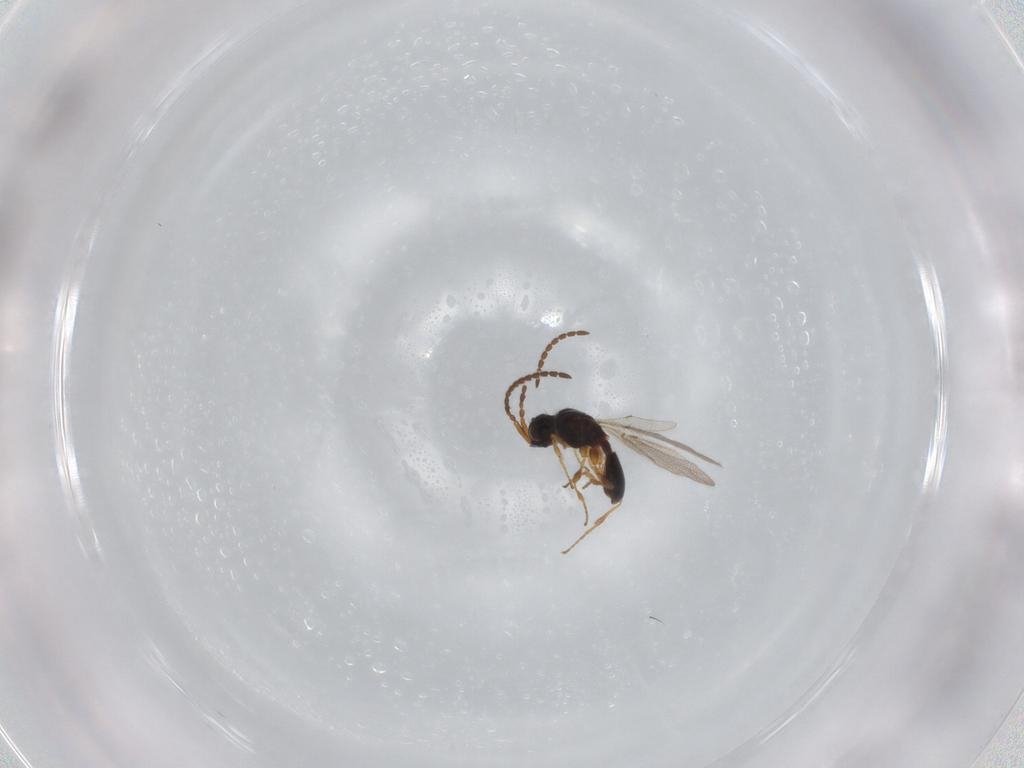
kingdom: Animalia
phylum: Arthropoda
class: Insecta
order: Hymenoptera
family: Diapriidae
